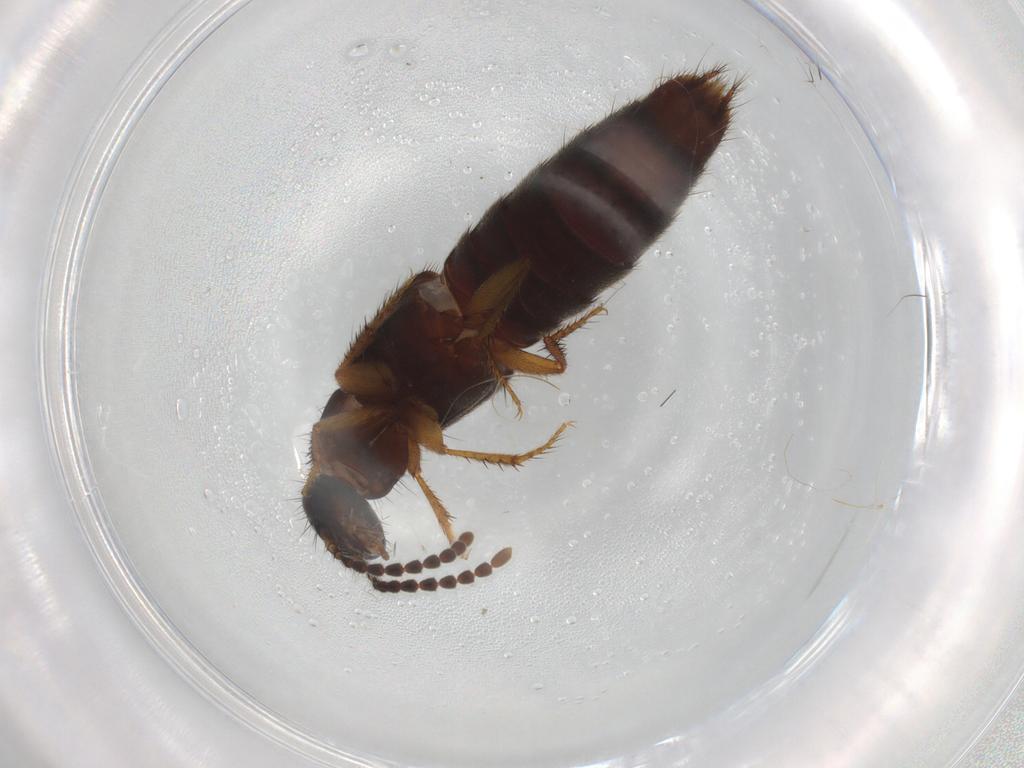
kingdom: Animalia
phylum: Arthropoda
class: Insecta
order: Coleoptera
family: Staphylinidae
